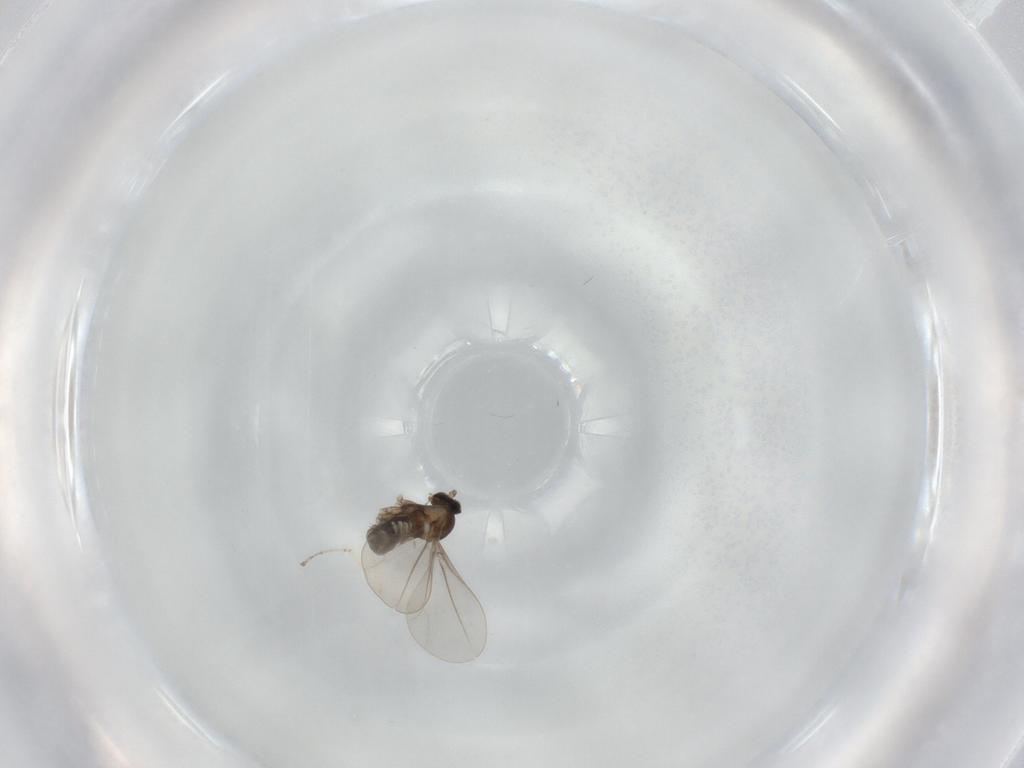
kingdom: Animalia
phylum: Arthropoda
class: Insecta
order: Diptera
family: Cecidomyiidae
